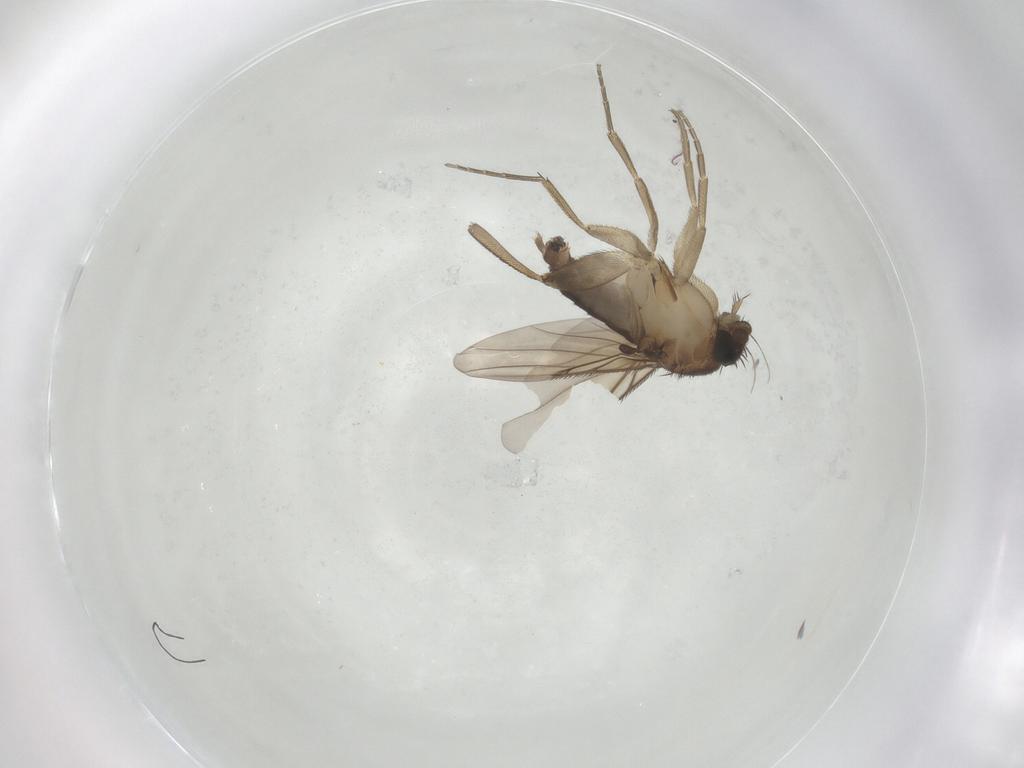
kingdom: Animalia
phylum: Arthropoda
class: Insecta
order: Diptera
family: Phoridae
